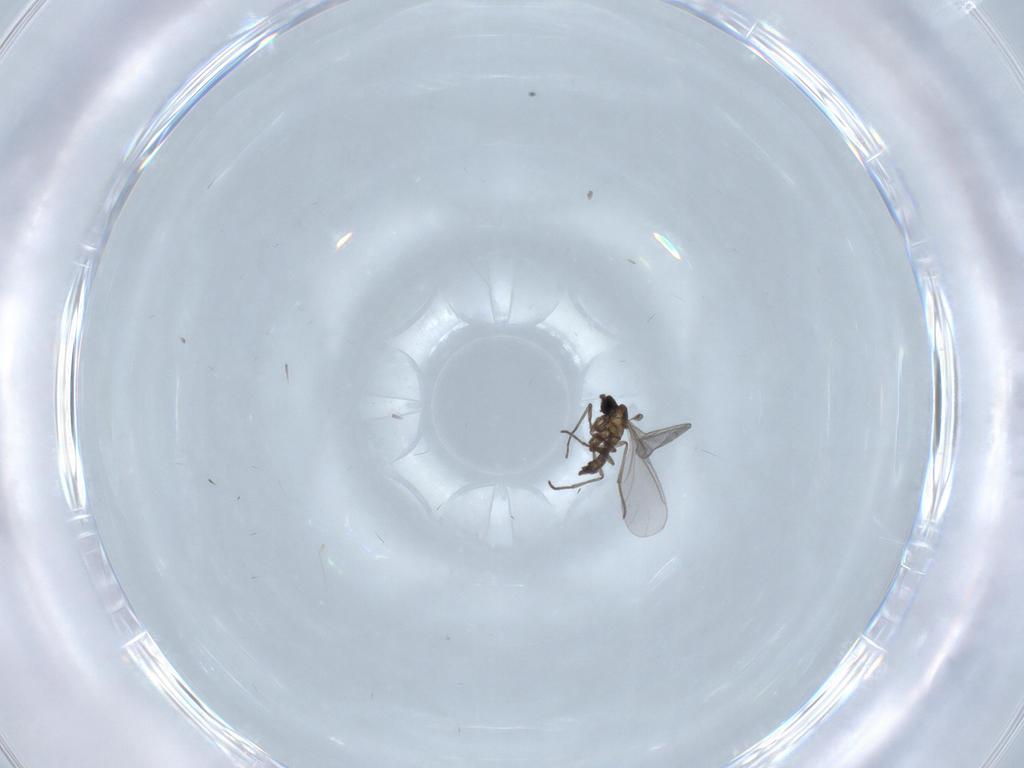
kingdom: Animalia
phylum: Arthropoda
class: Insecta
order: Diptera
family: Sciaridae
